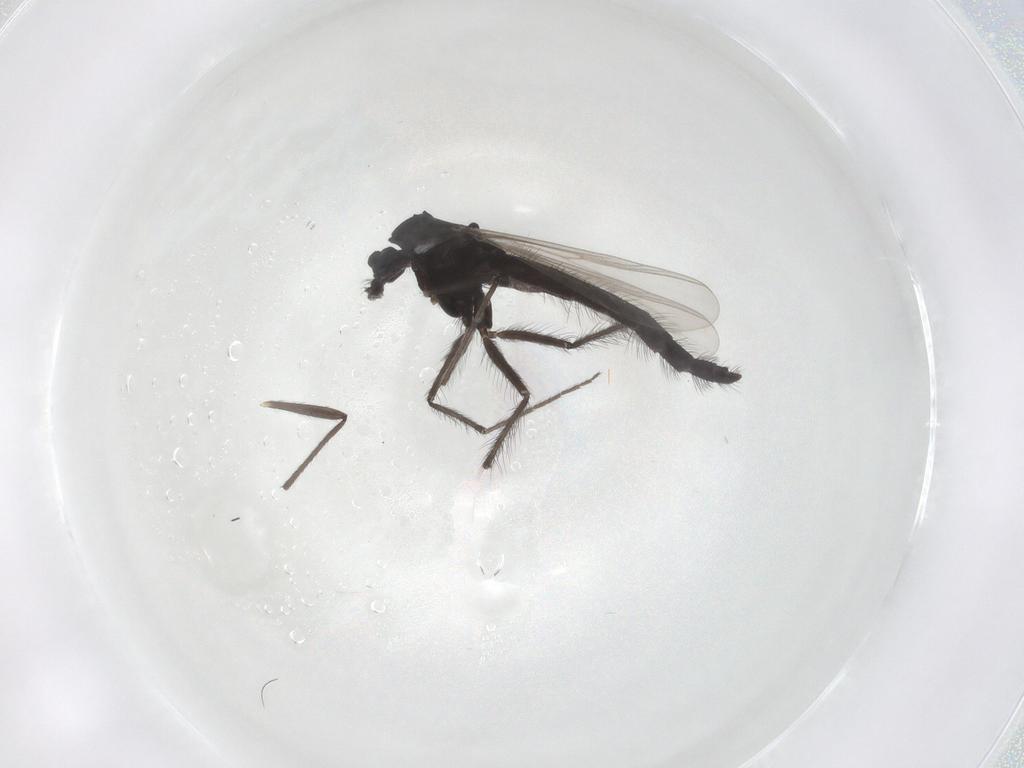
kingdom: Animalia
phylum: Arthropoda
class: Insecta
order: Diptera
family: Chironomidae
